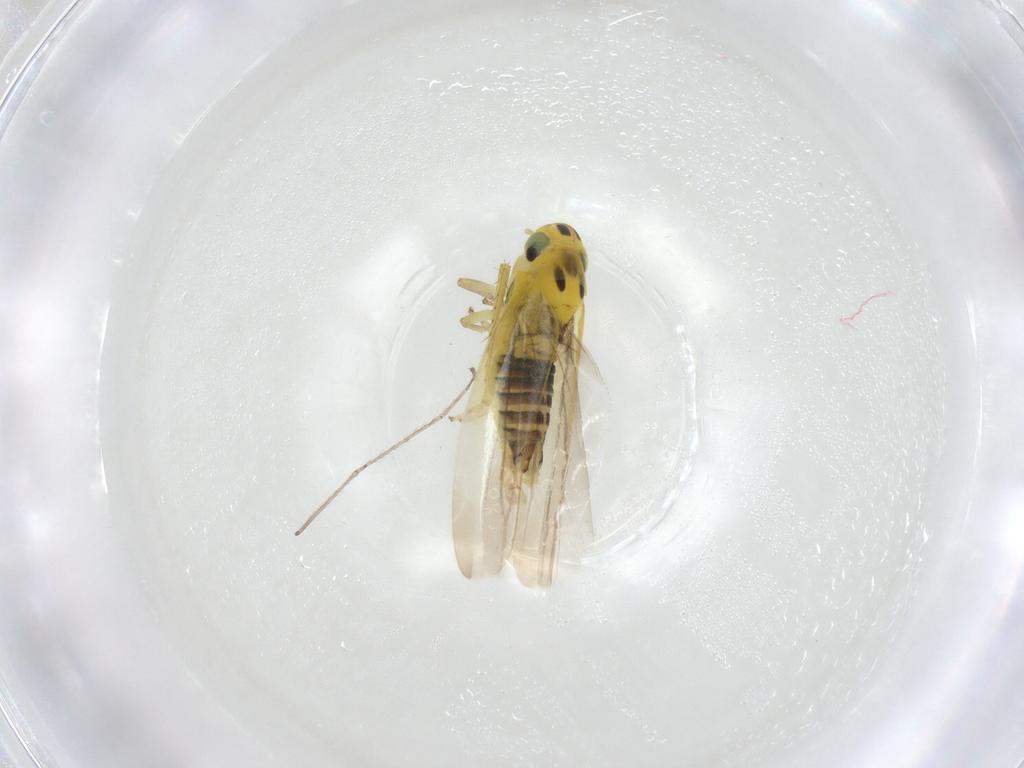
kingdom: Animalia
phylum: Arthropoda
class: Insecta
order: Hemiptera
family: Cicadellidae
